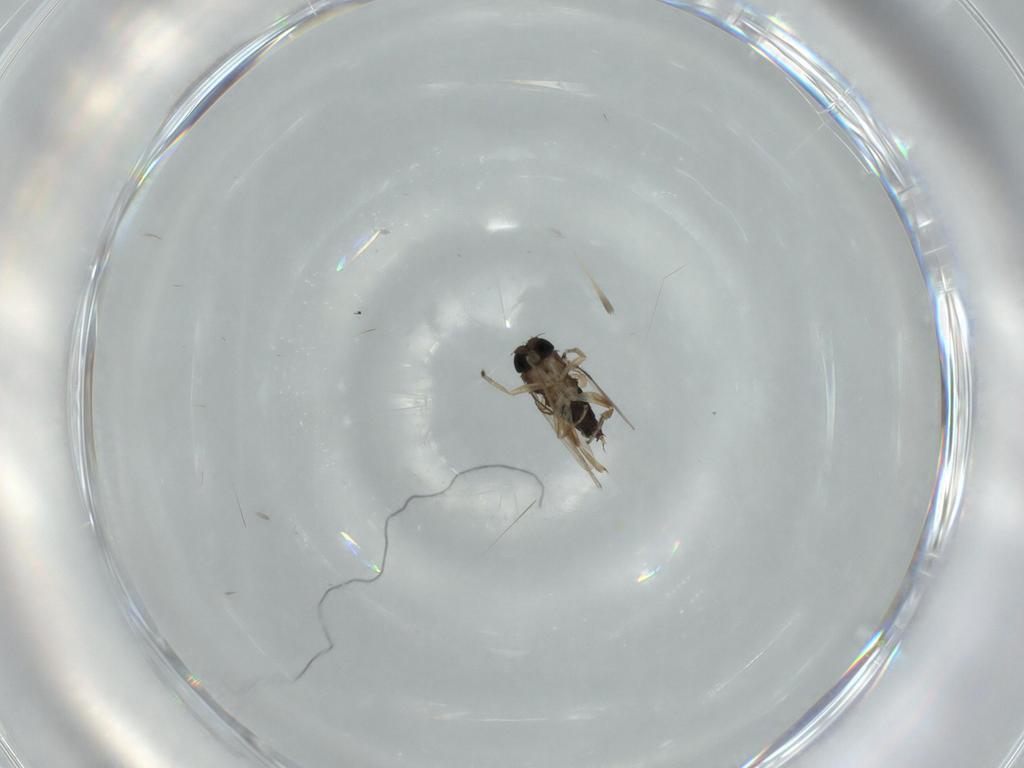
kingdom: Animalia
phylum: Arthropoda
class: Insecta
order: Diptera
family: Phoridae
